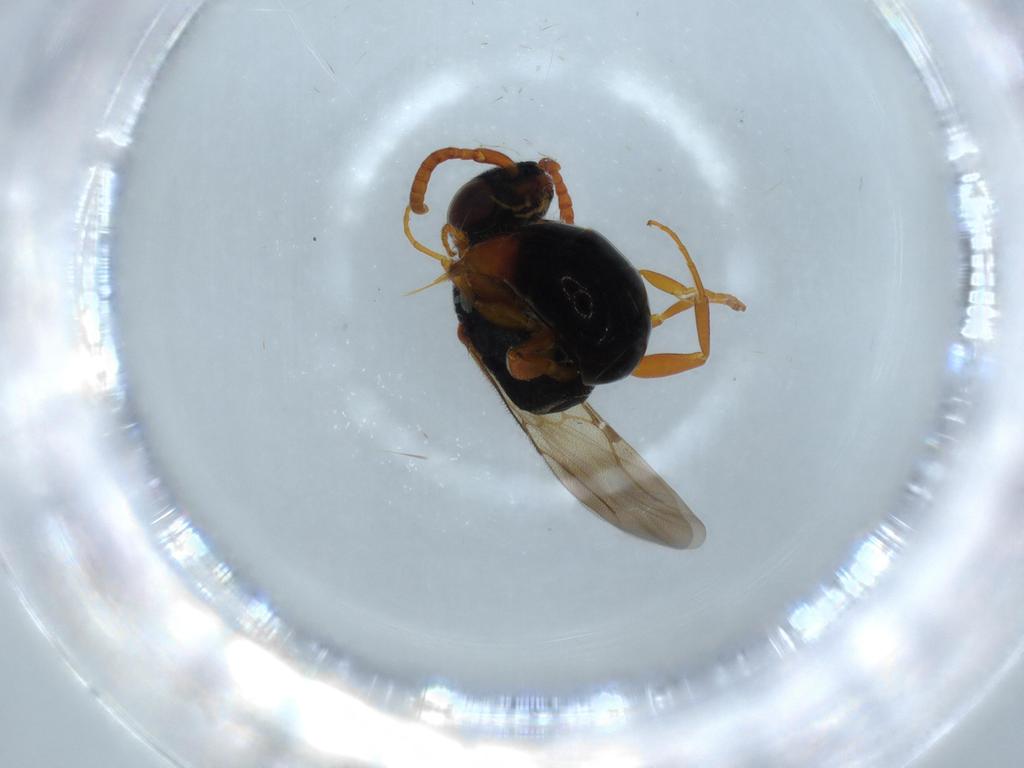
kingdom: Animalia
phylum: Arthropoda
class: Insecta
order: Hymenoptera
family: Bethylidae
